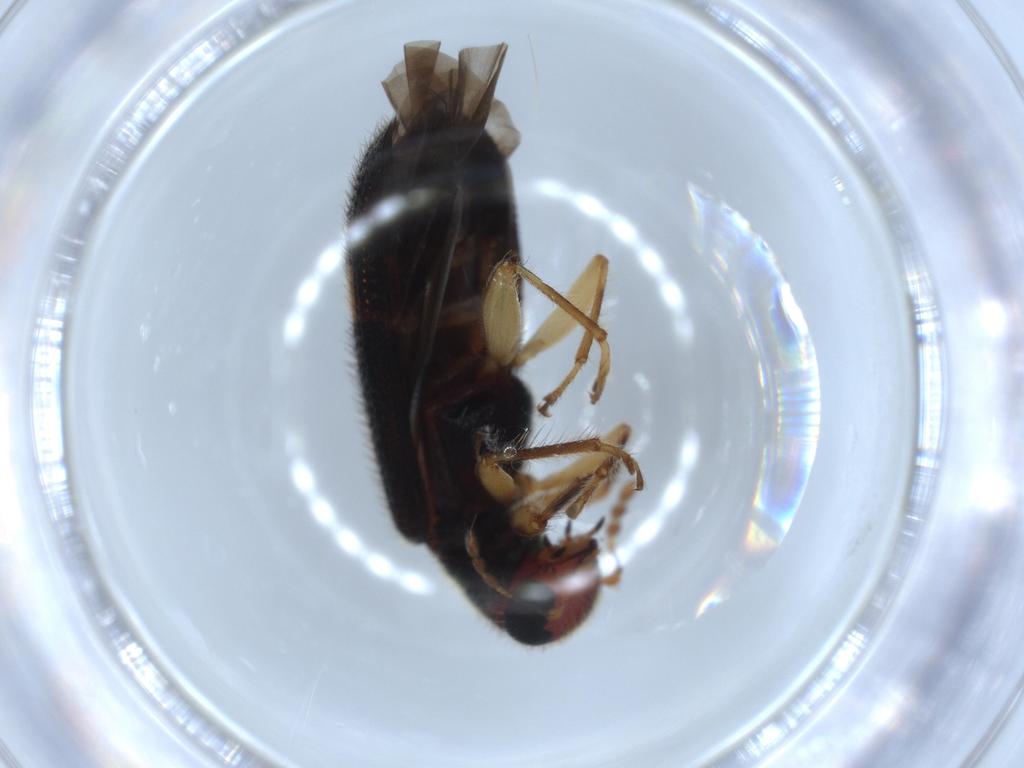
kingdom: Animalia
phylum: Arthropoda
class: Insecta
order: Coleoptera
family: Cleridae
